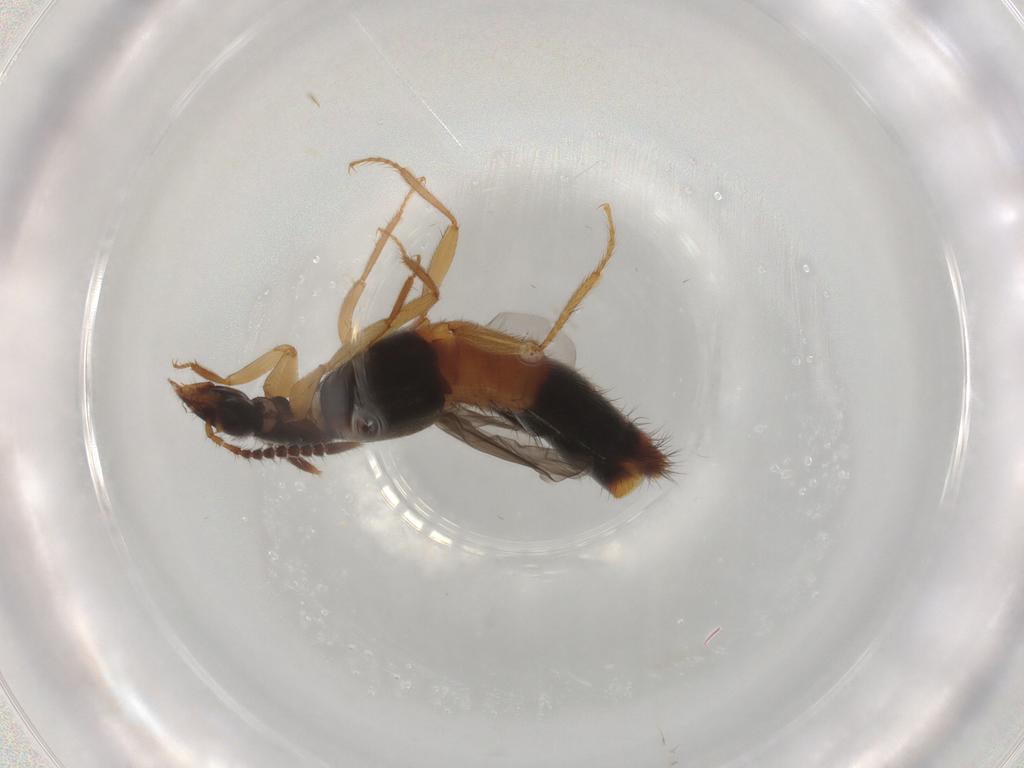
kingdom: Animalia
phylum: Arthropoda
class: Insecta
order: Coleoptera
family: Staphylinidae
